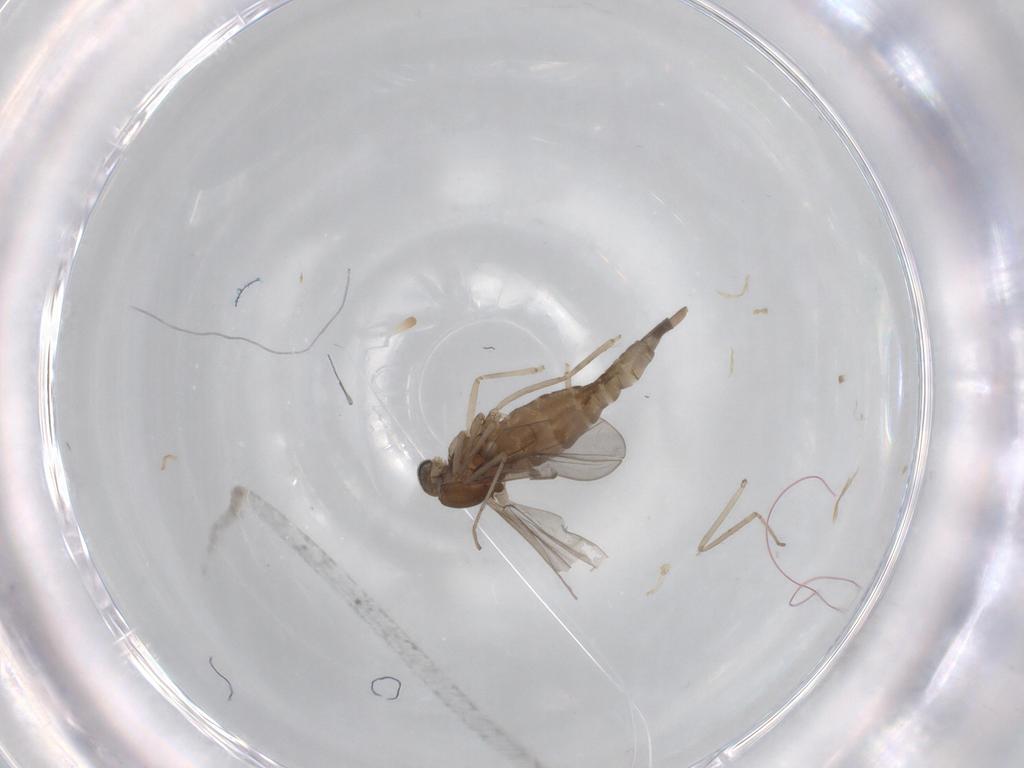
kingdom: Animalia
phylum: Arthropoda
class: Insecta
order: Diptera
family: Cecidomyiidae
